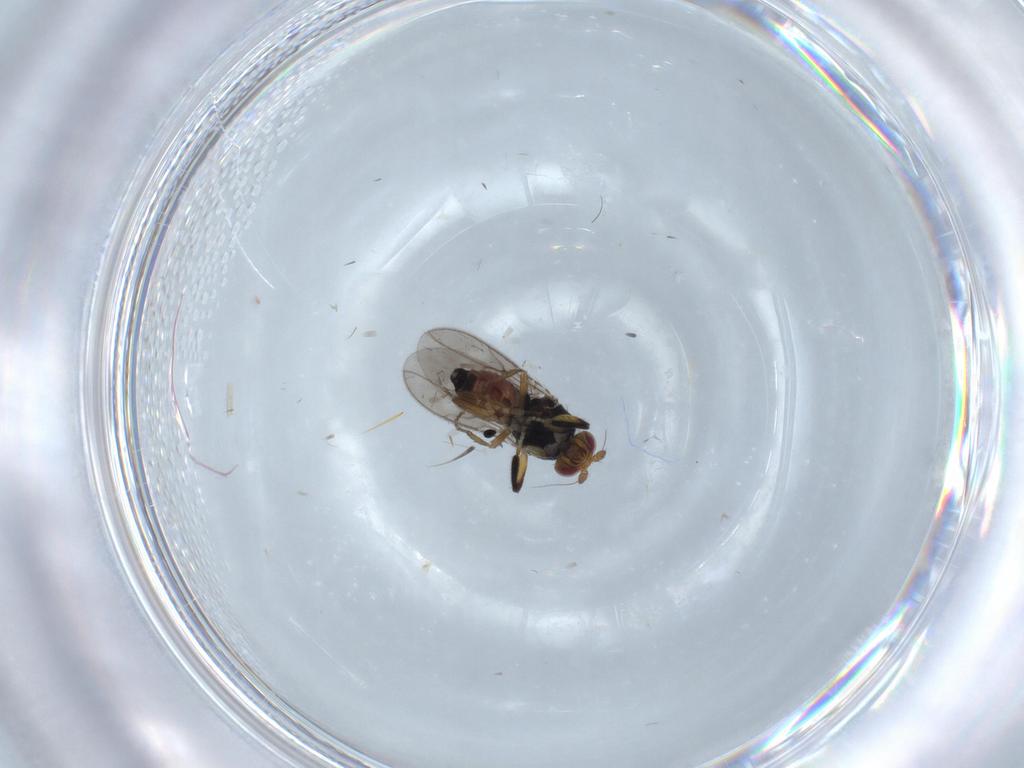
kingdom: Animalia
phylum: Arthropoda
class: Insecta
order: Diptera
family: Sphaeroceridae
